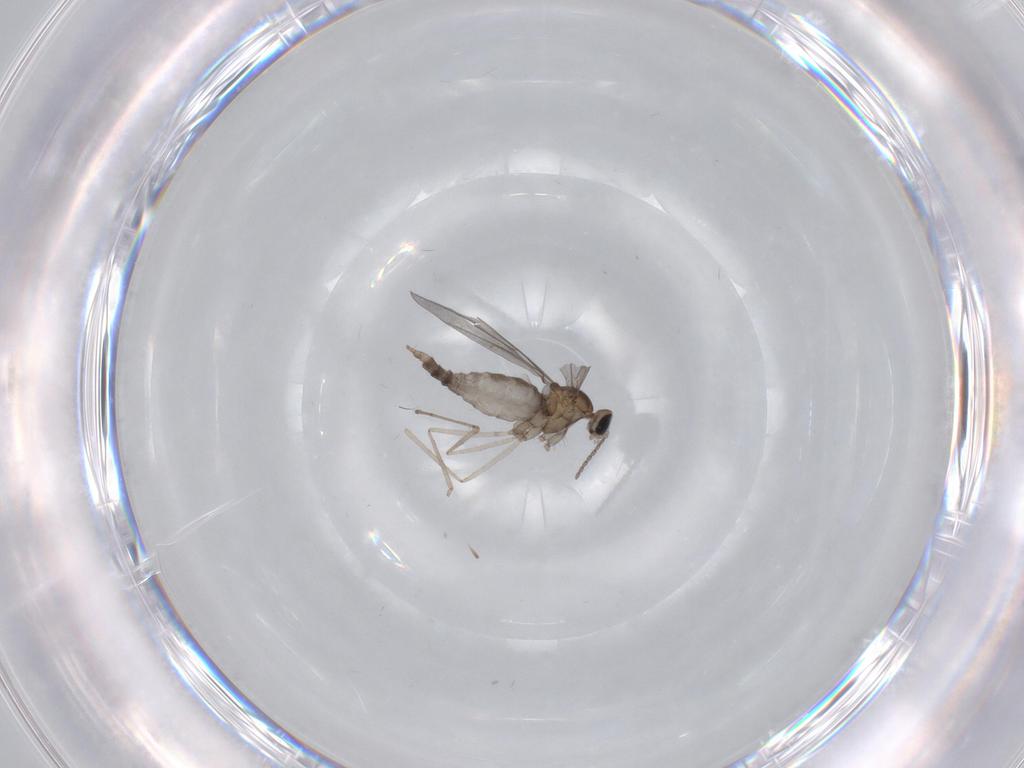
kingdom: Animalia
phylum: Arthropoda
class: Insecta
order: Diptera
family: Cecidomyiidae
